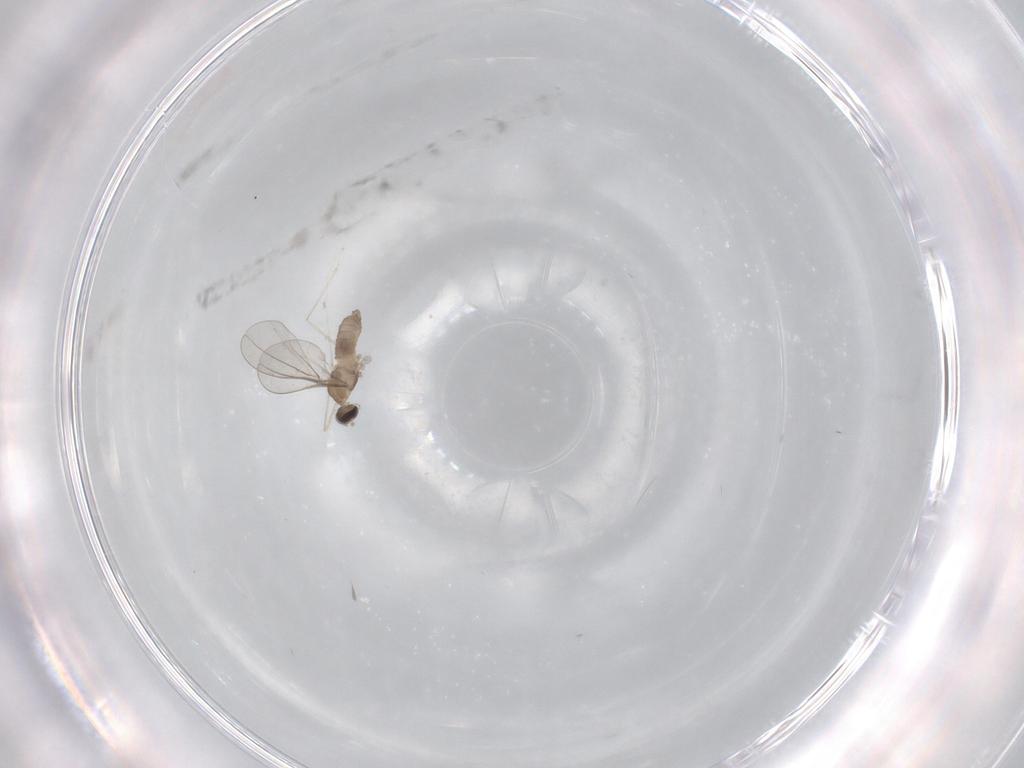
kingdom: Animalia
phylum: Arthropoda
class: Insecta
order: Diptera
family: Cecidomyiidae
